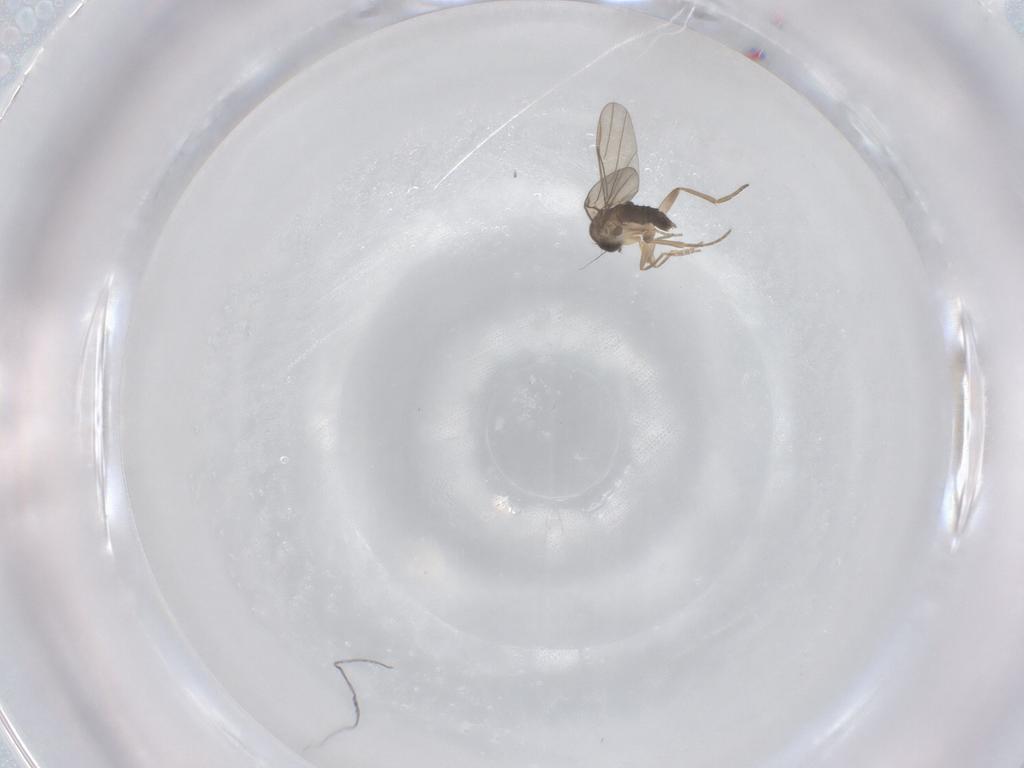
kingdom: Animalia
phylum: Arthropoda
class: Insecta
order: Diptera
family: Phoridae
